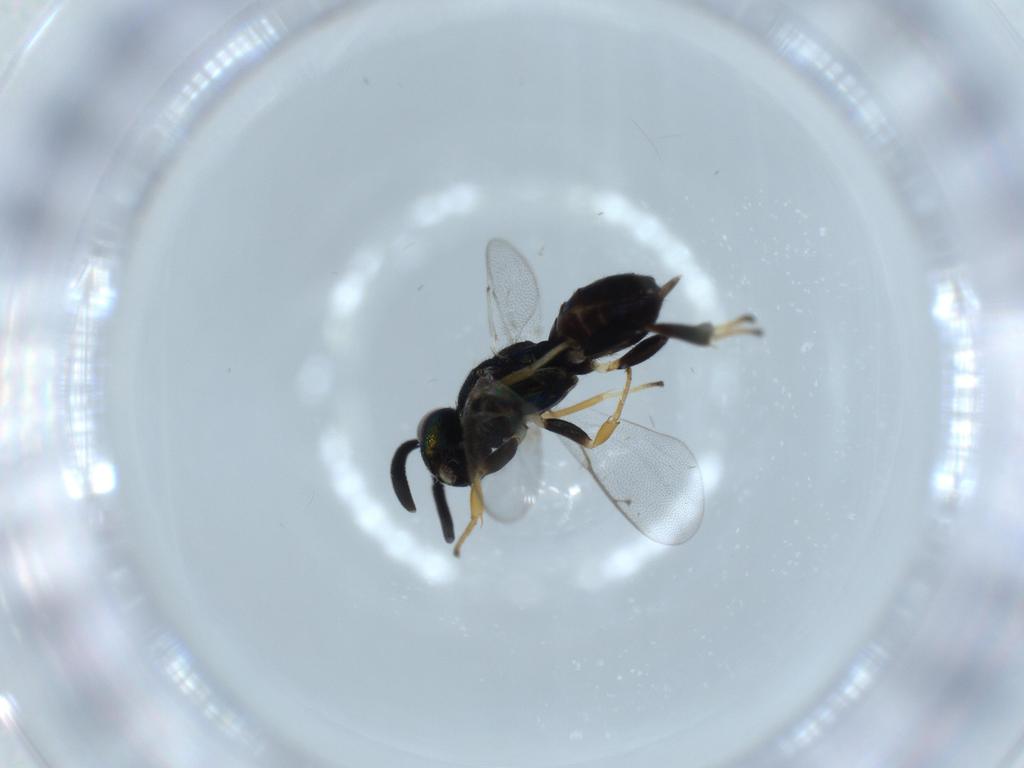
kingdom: Animalia
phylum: Arthropoda
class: Insecta
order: Hymenoptera
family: Eupelmidae
